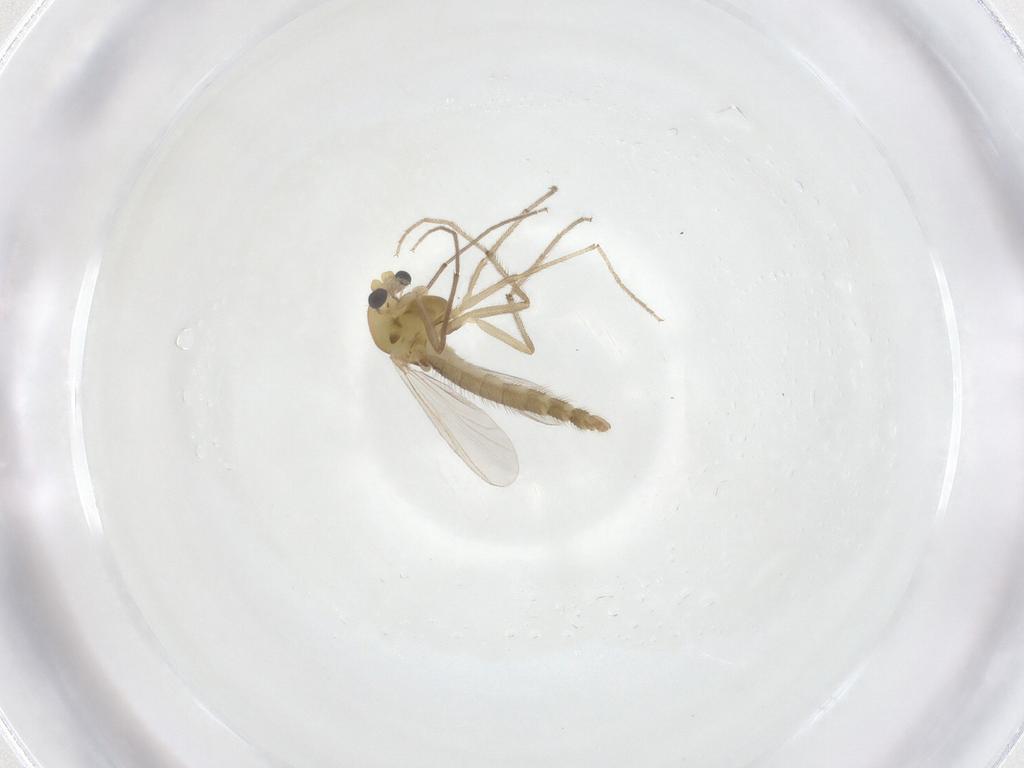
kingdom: Animalia
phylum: Arthropoda
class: Insecta
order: Diptera
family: Chironomidae
